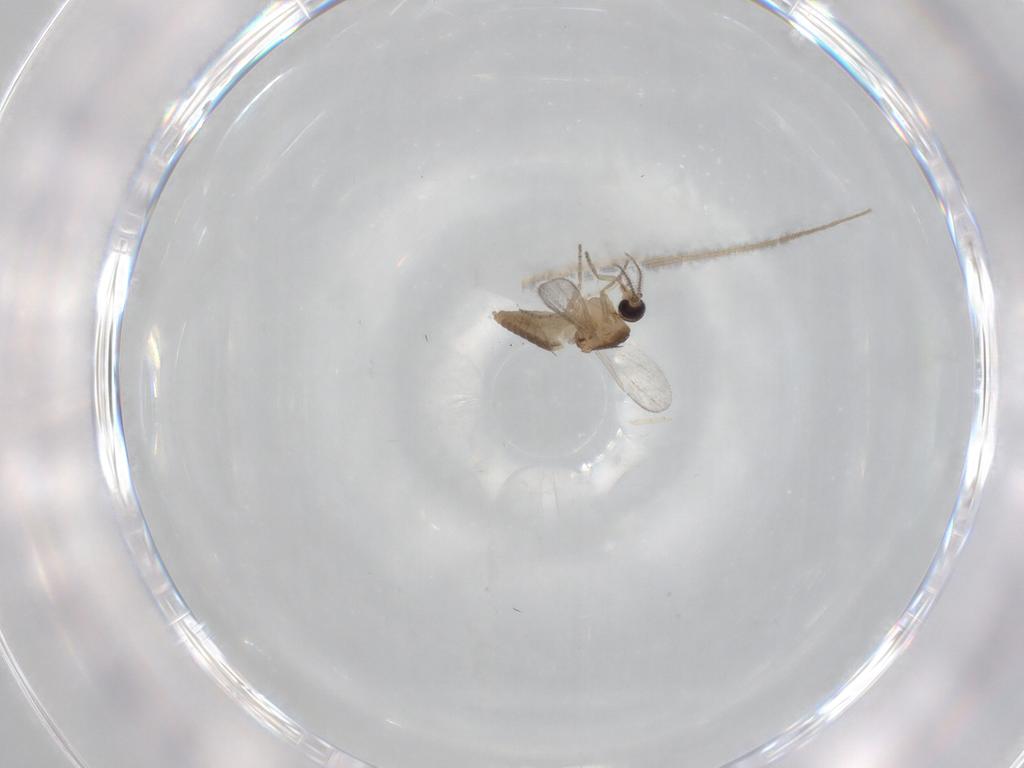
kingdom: Animalia
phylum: Arthropoda
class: Insecta
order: Diptera
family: Chironomidae
